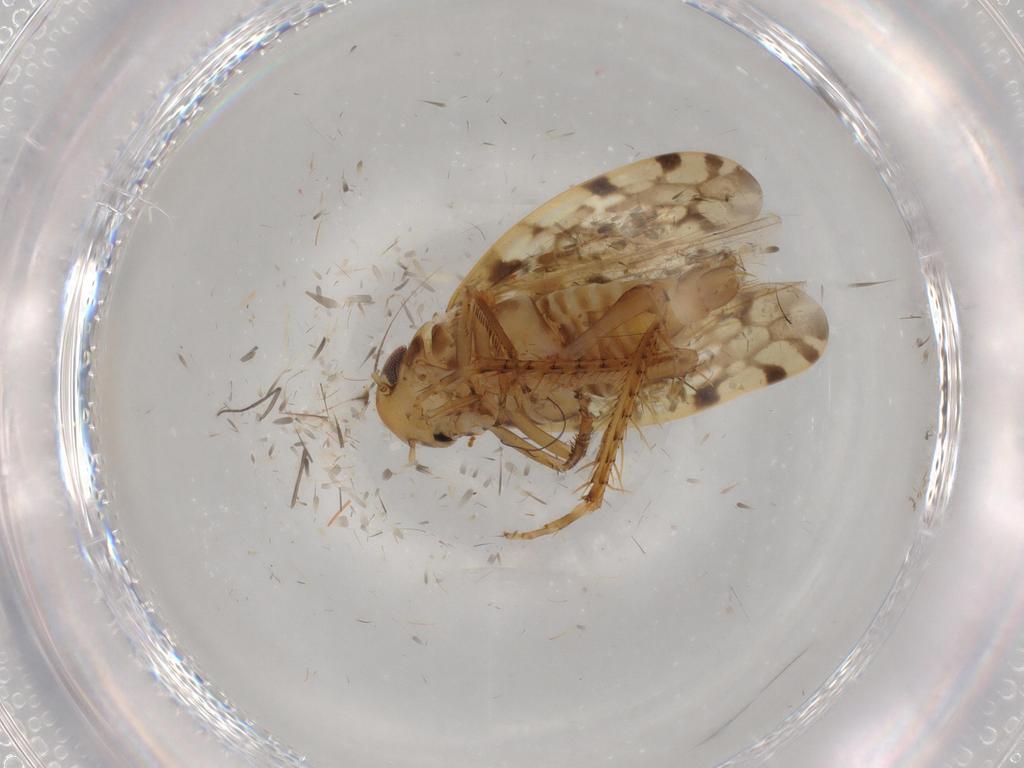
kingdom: Animalia
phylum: Arthropoda
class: Insecta
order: Hemiptera
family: Cicadellidae
